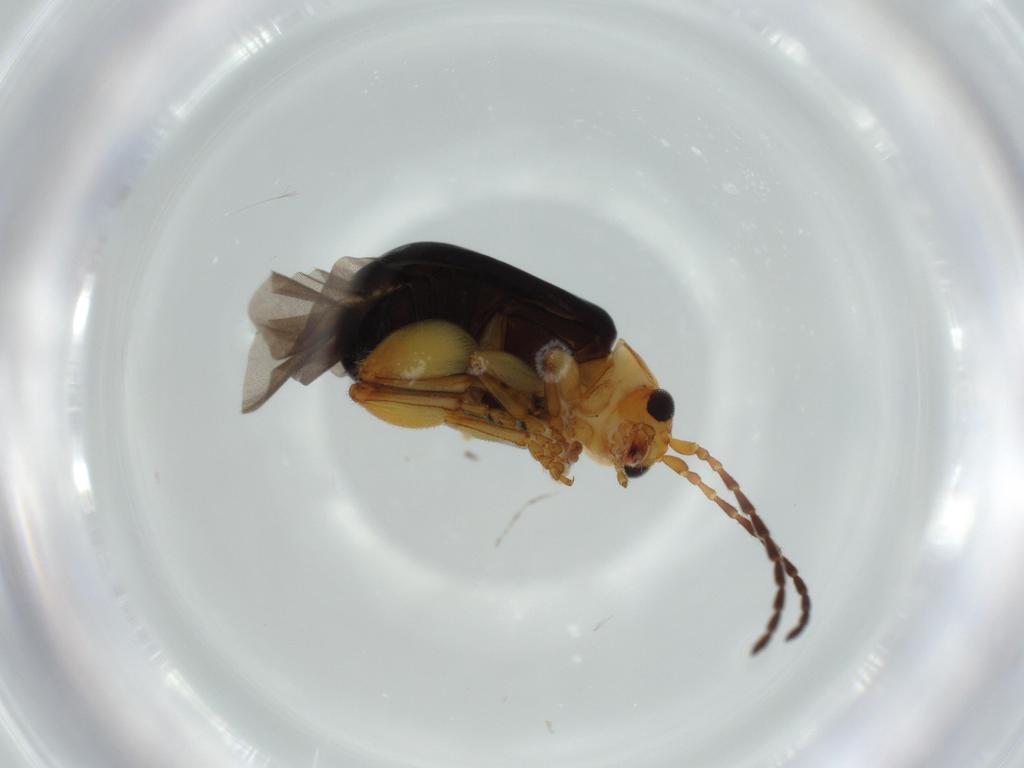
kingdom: Animalia
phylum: Arthropoda
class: Insecta
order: Coleoptera
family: Chrysomelidae
